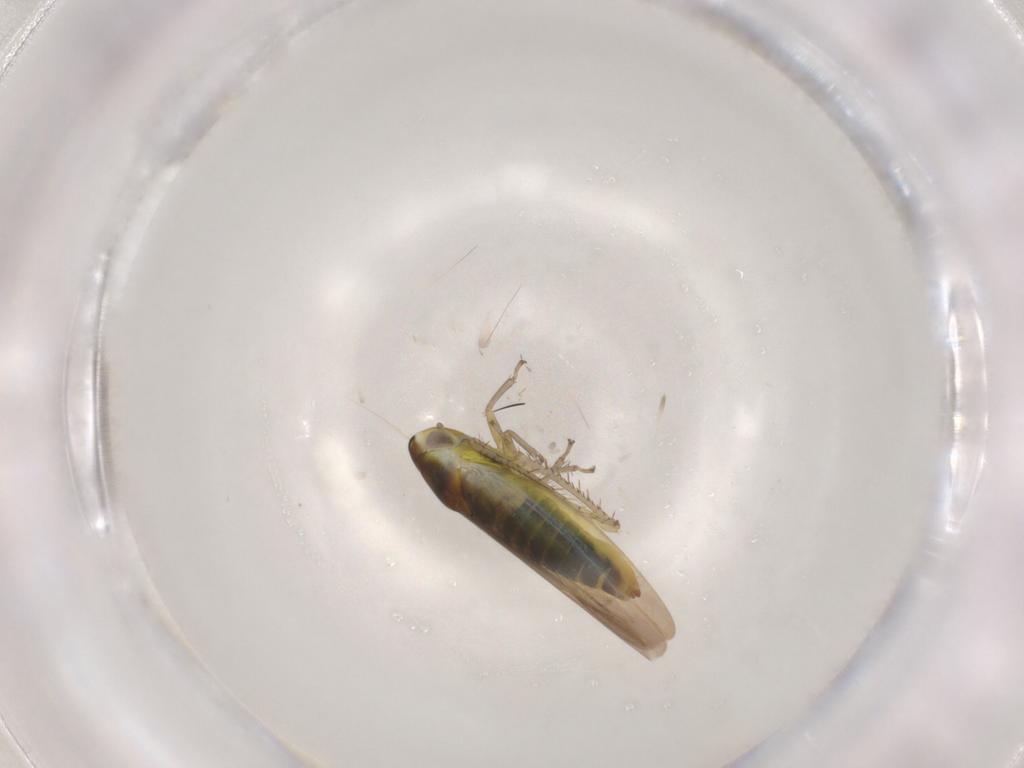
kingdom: Animalia
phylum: Arthropoda
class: Insecta
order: Hemiptera
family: Cicadellidae
